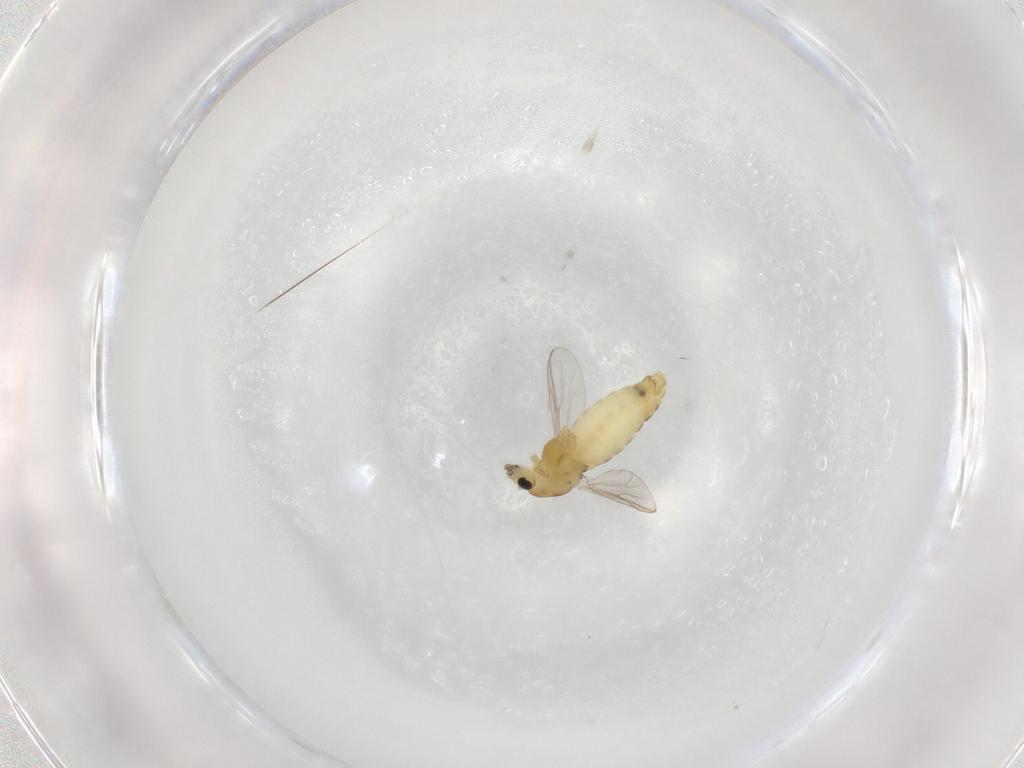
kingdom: Animalia
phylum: Arthropoda
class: Insecta
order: Diptera
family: Chironomidae
